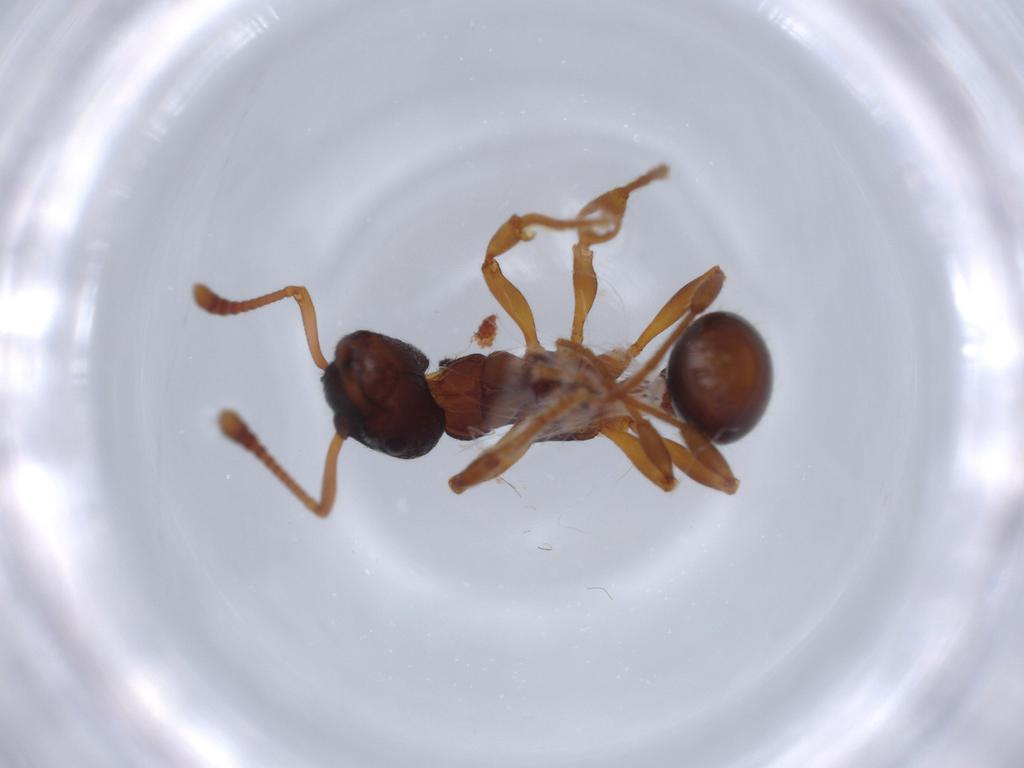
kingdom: Animalia
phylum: Arthropoda
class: Insecta
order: Hymenoptera
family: Formicidae
